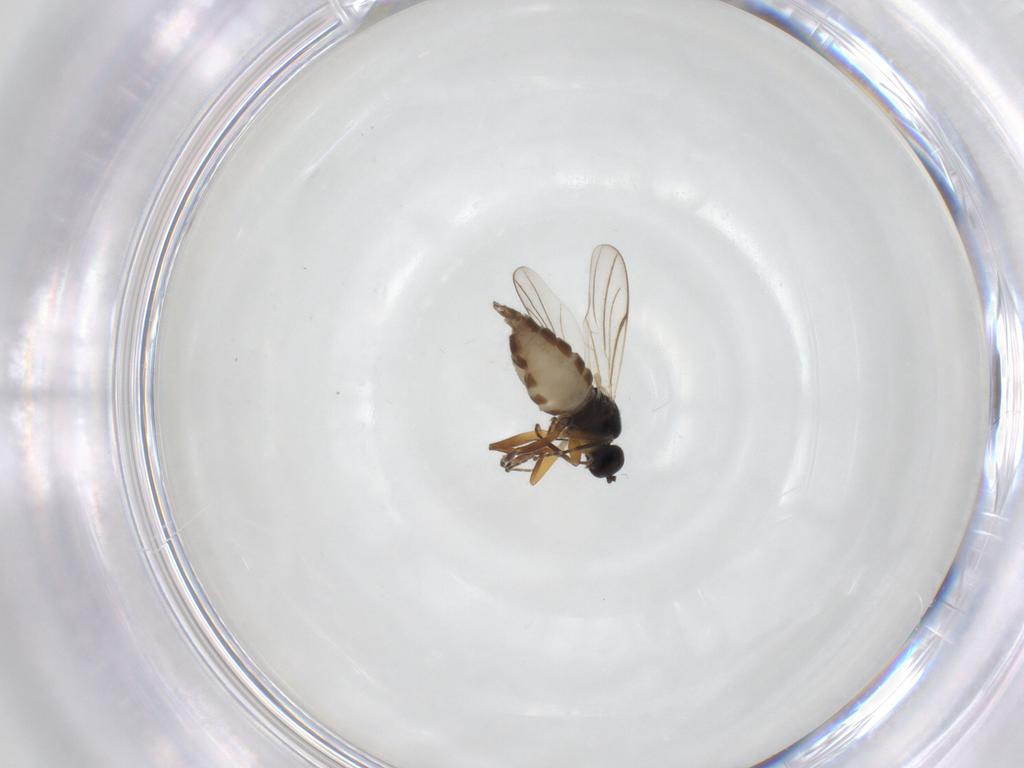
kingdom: Animalia
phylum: Arthropoda
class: Insecta
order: Diptera
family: Hybotidae
